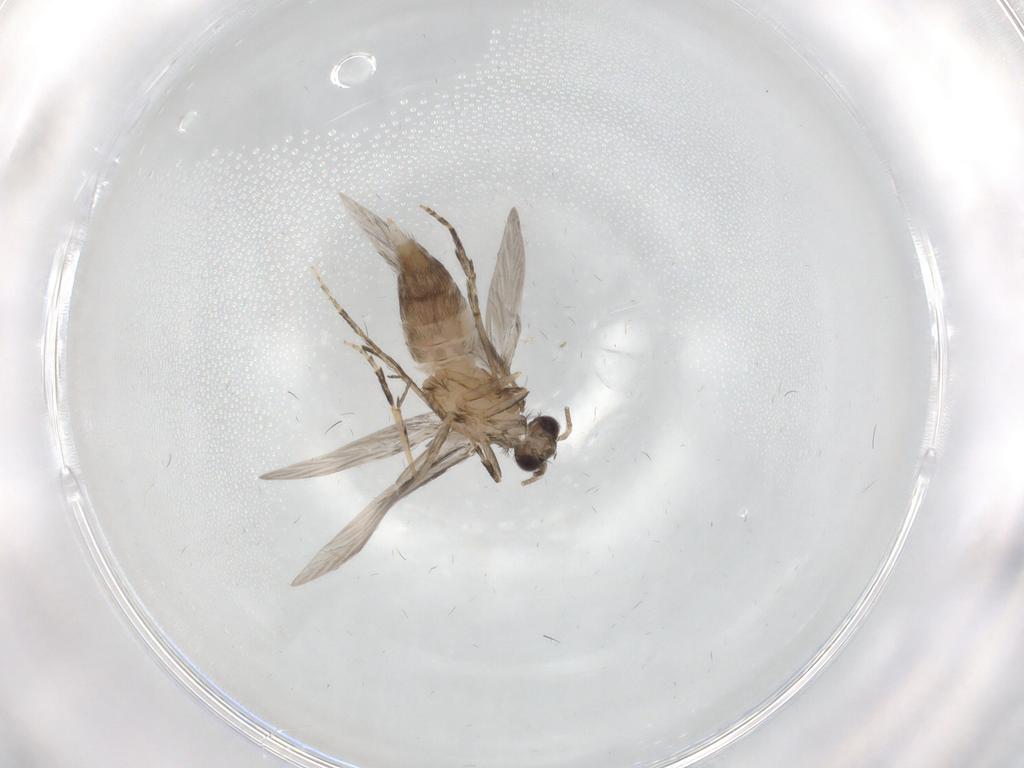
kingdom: Animalia
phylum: Arthropoda
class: Insecta
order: Trichoptera
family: Hydroptilidae
